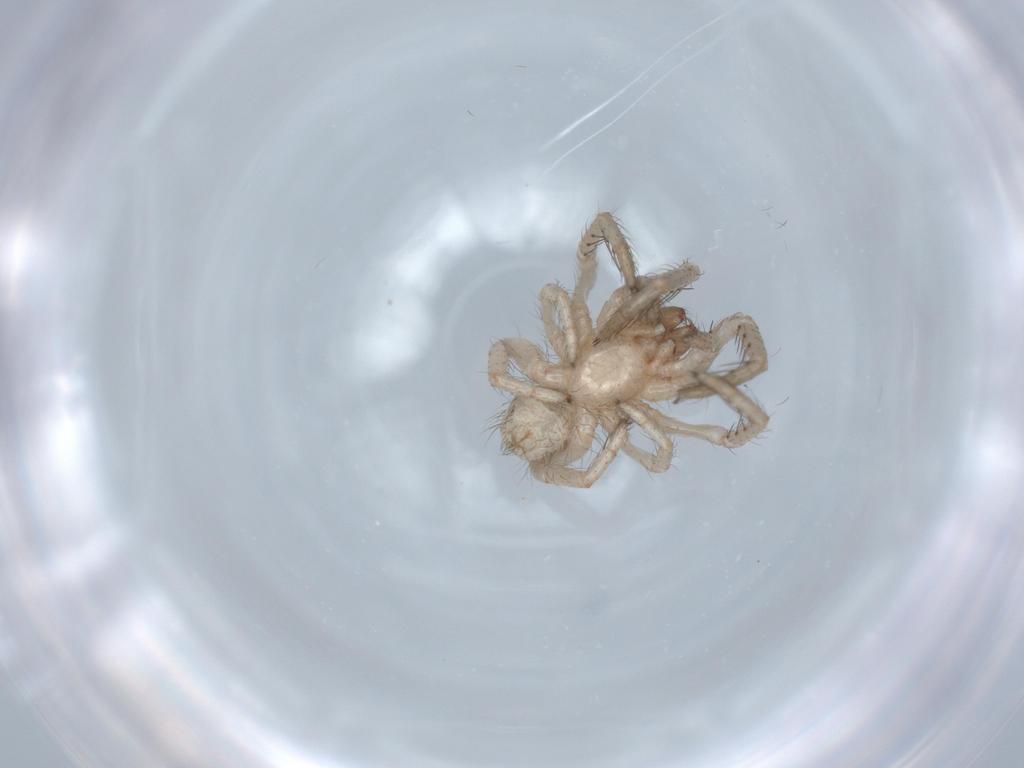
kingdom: Animalia
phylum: Arthropoda
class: Arachnida
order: Araneae
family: Segestriidae
